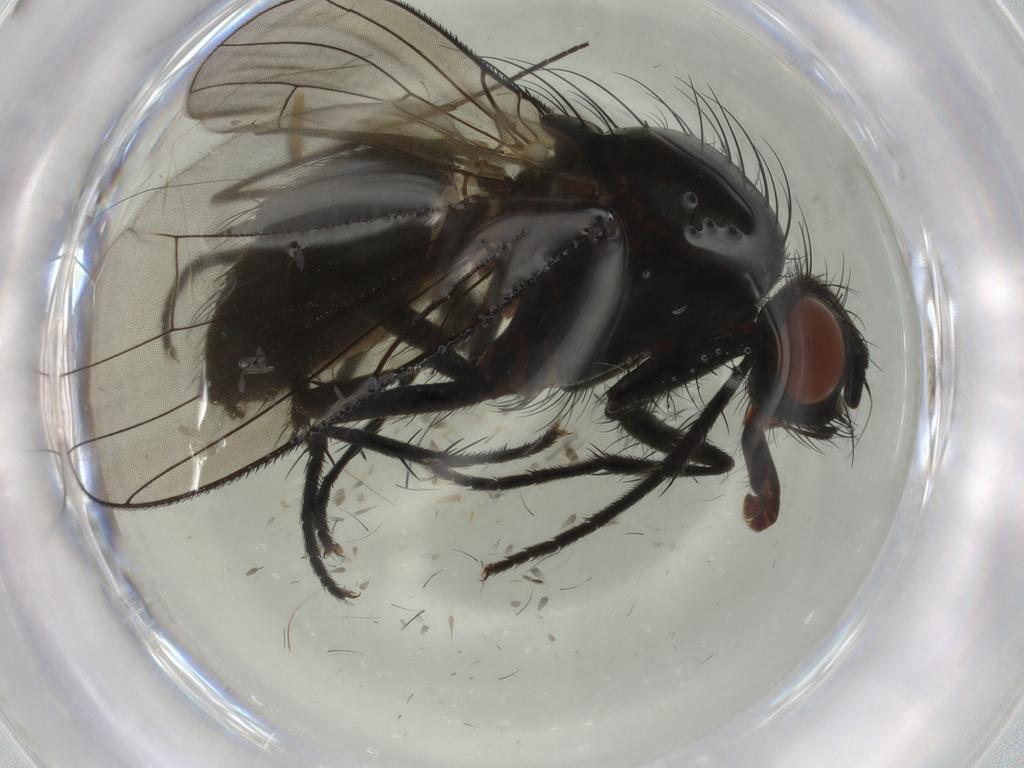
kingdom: Animalia
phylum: Arthropoda
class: Insecta
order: Diptera
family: Anthomyiidae
